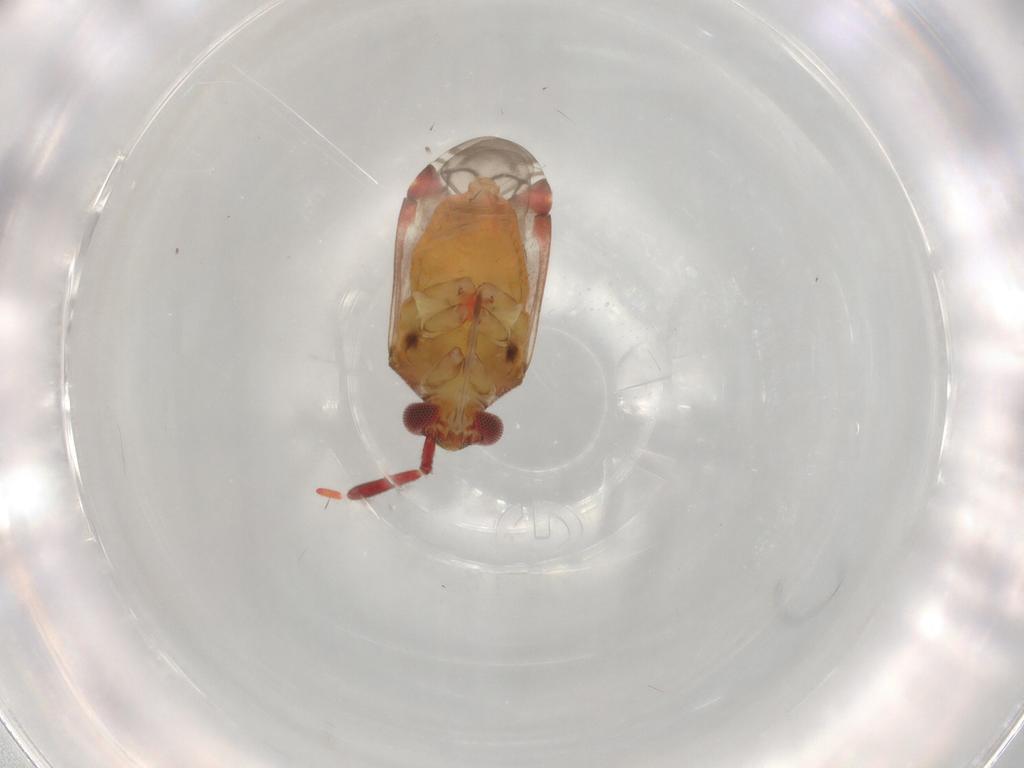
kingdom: Animalia
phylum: Arthropoda
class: Insecta
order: Hemiptera
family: Miridae
